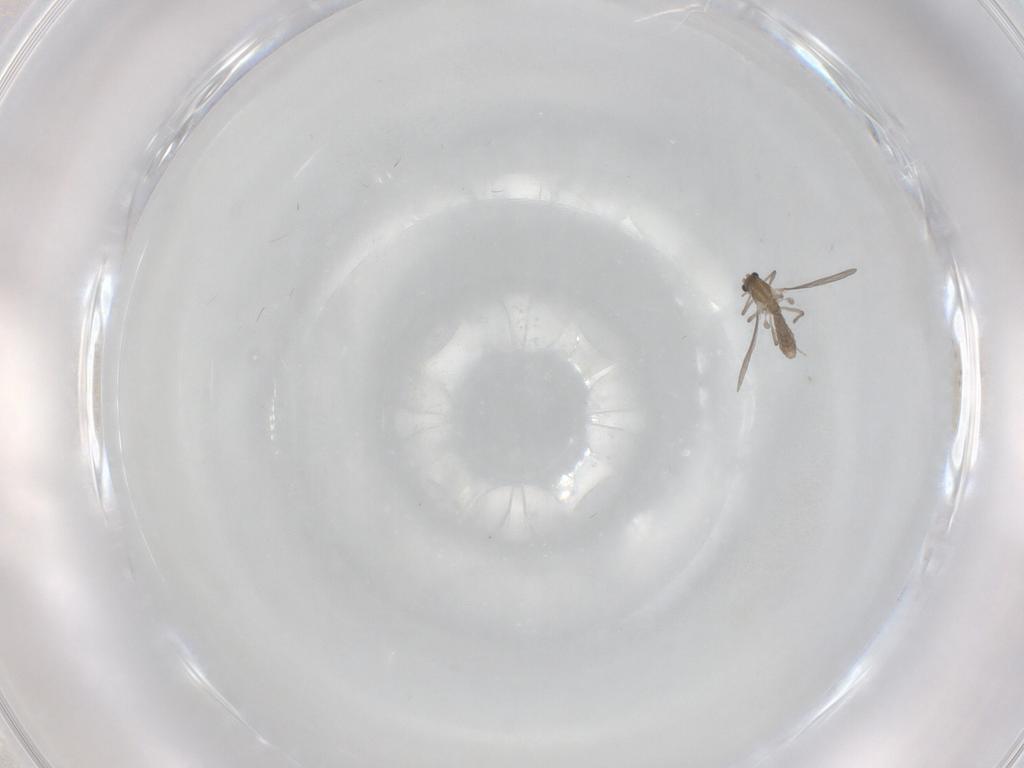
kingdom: Animalia
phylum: Arthropoda
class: Insecta
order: Diptera
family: Chironomidae
